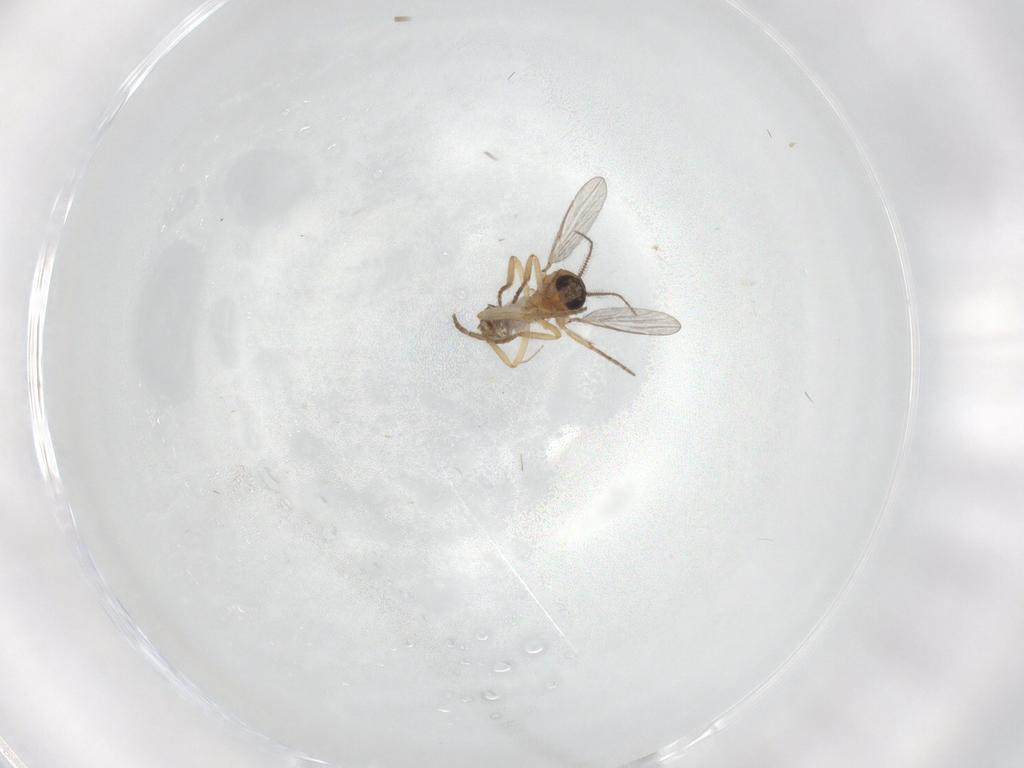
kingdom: Animalia
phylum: Arthropoda
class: Insecta
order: Diptera
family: Chironomidae
